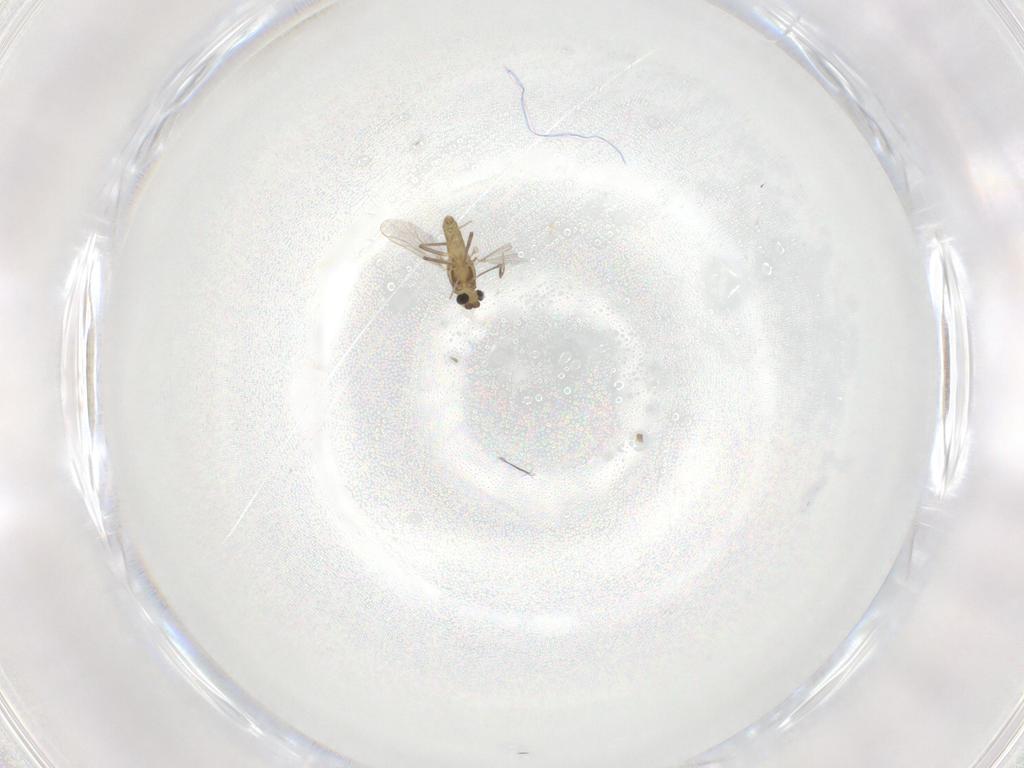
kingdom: Animalia
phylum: Arthropoda
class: Insecta
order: Diptera
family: Chironomidae
